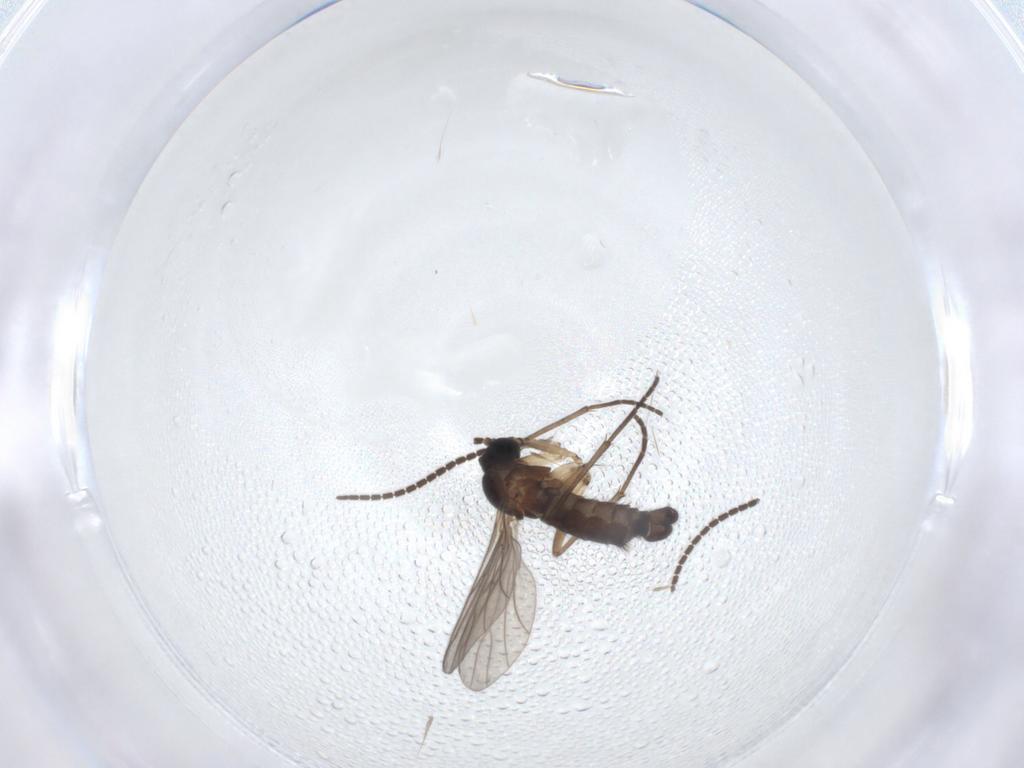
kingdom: Animalia
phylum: Arthropoda
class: Insecta
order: Diptera
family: Sciaridae
